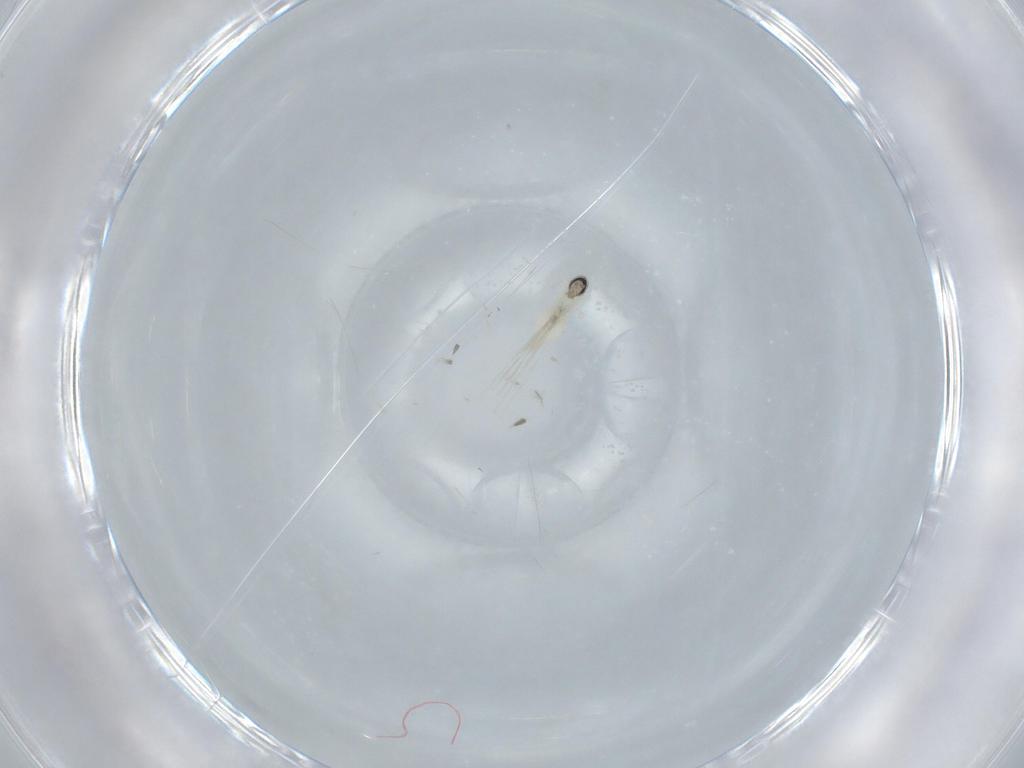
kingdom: Animalia
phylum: Arthropoda
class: Insecta
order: Diptera
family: Cecidomyiidae
